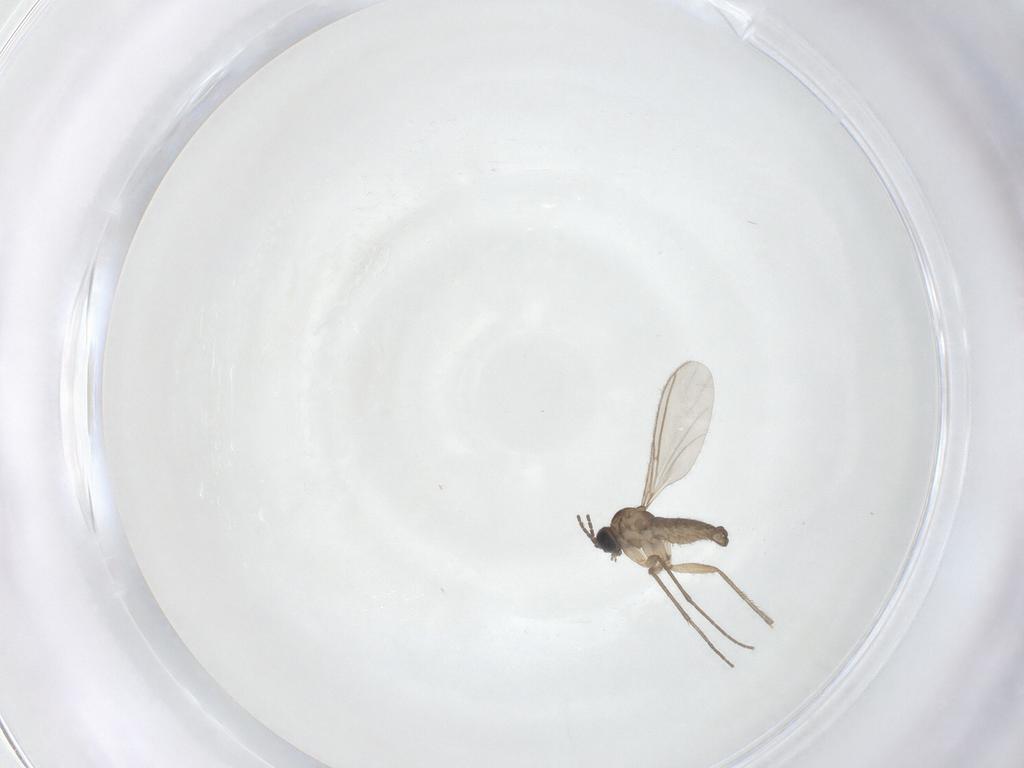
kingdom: Animalia
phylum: Arthropoda
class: Insecta
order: Diptera
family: Sciaridae
